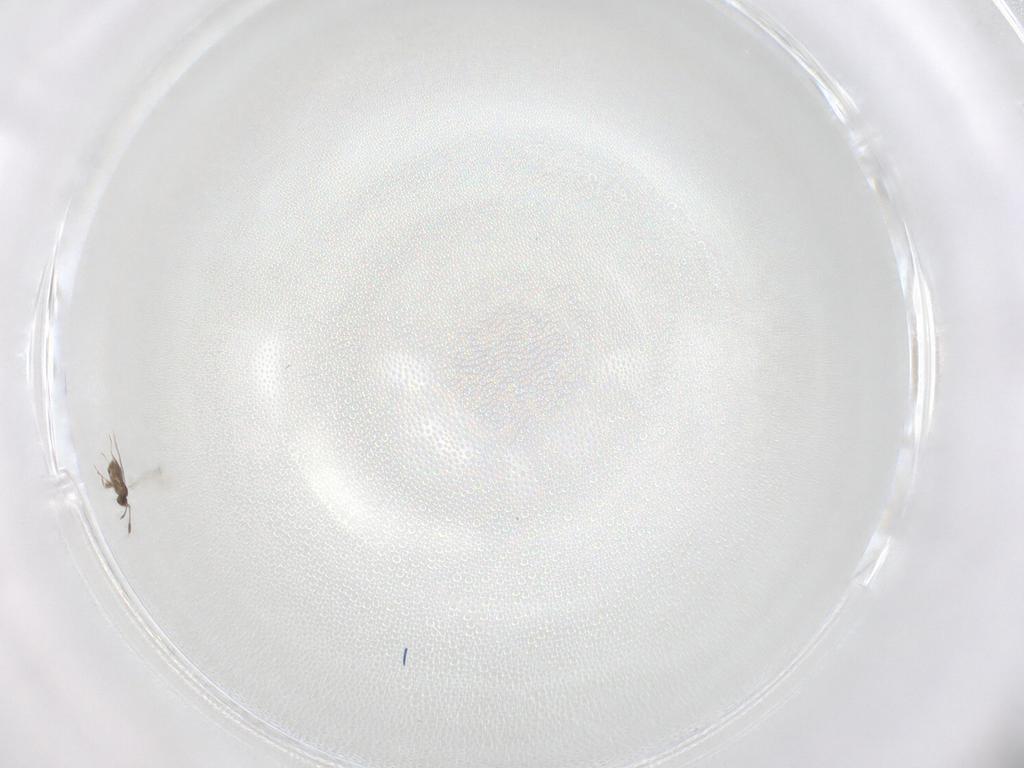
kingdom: Animalia
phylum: Arthropoda
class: Insecta
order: Hymenoptera
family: Mymaridae
